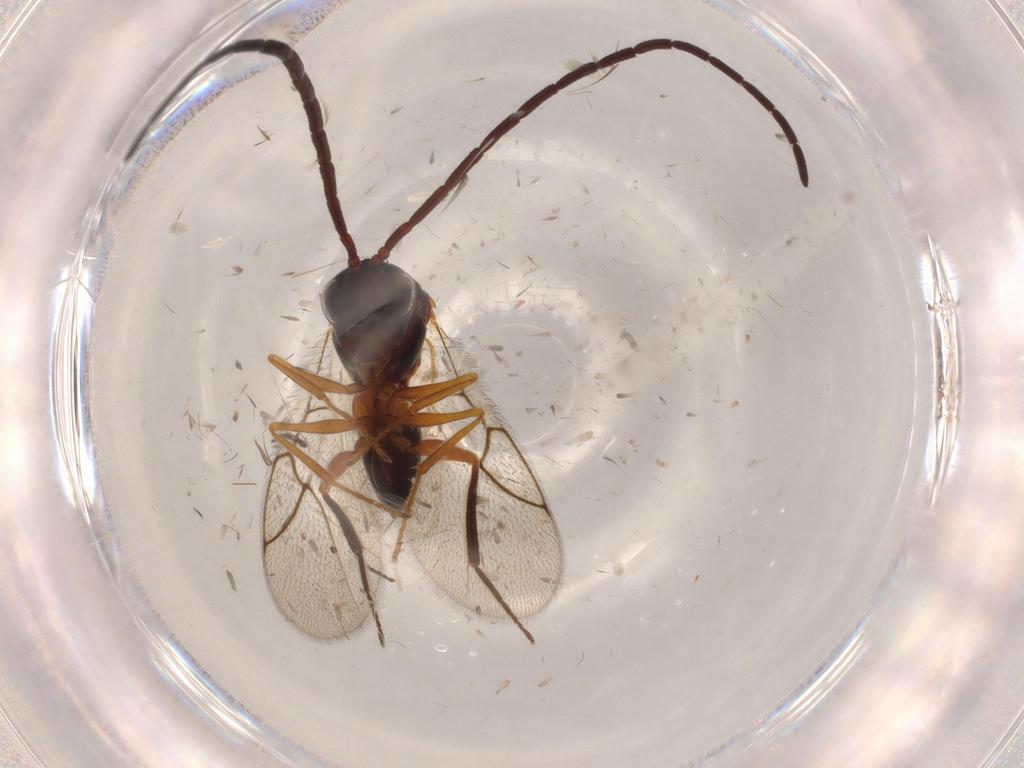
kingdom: Animalia
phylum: Arthropoda
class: Insecta
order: Hymenoptera
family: Figitidae
